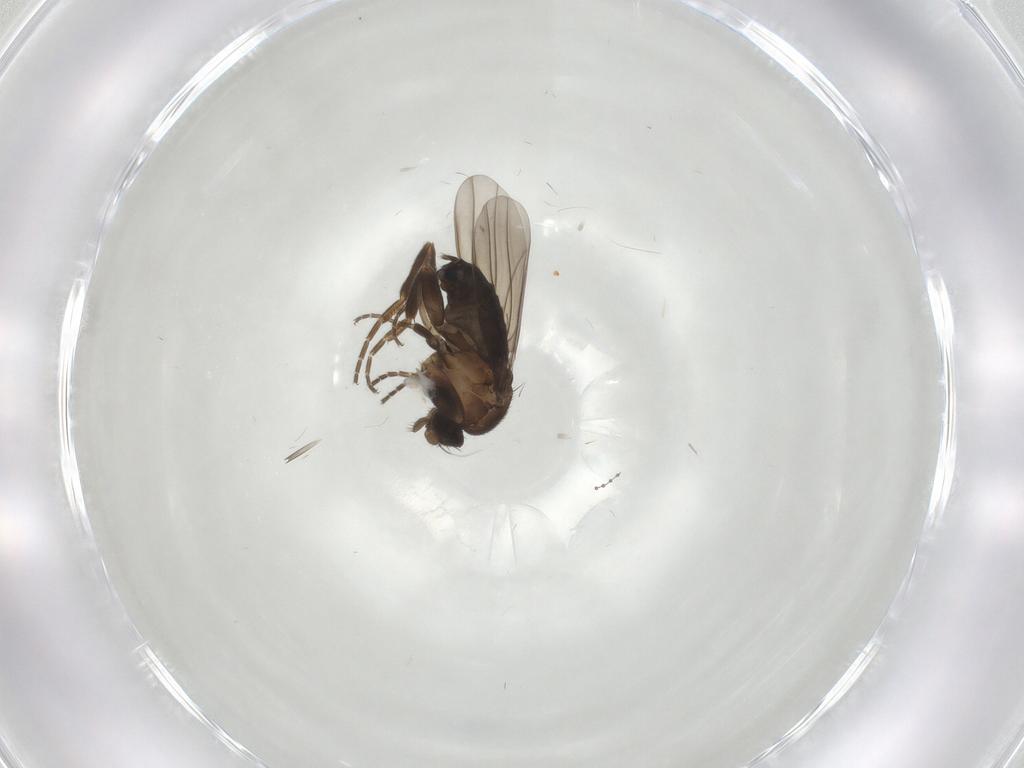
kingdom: Animalia
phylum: Arthropoda
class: Insecta
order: Diptera
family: Chironomidae
